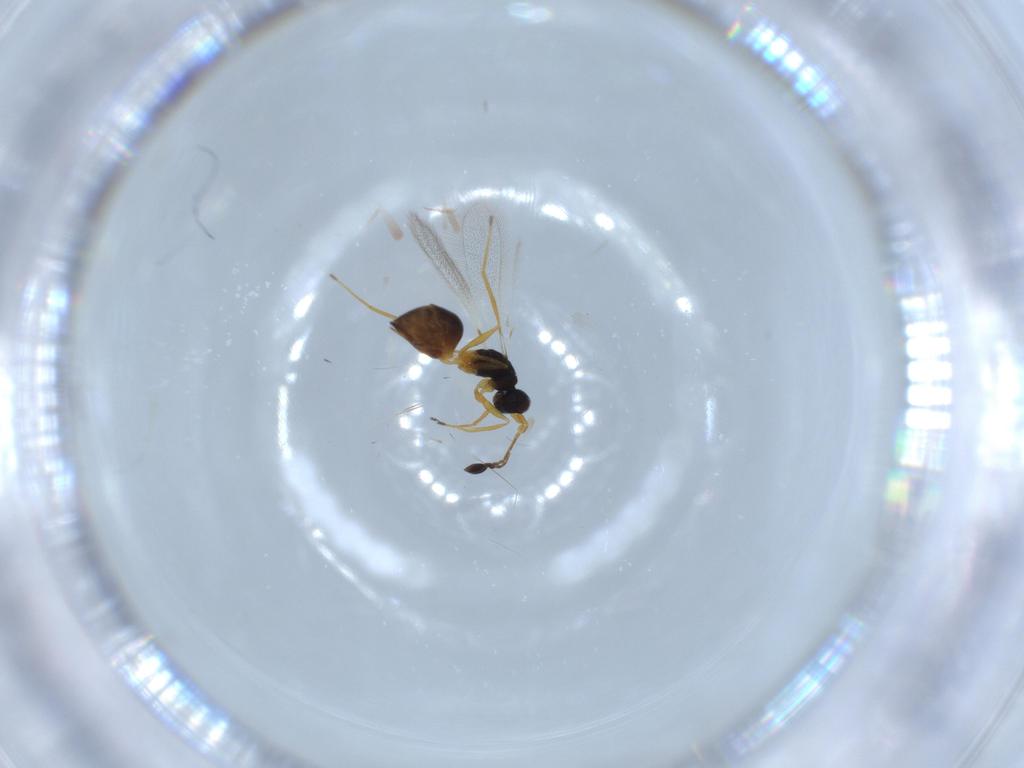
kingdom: Animalia
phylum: Arthropoda
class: Insecta
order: Hymenoptera
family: Mymaridae
